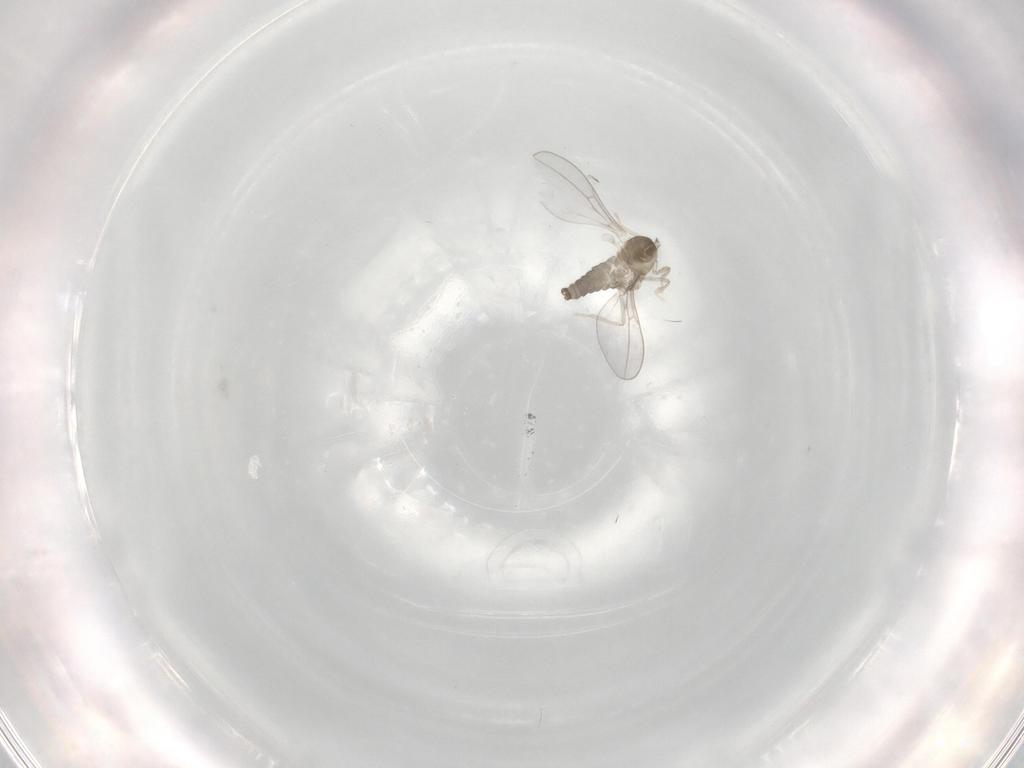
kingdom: Animalia
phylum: Arthropoda
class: Insecta
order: Diptera
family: Cecidomyiidae
